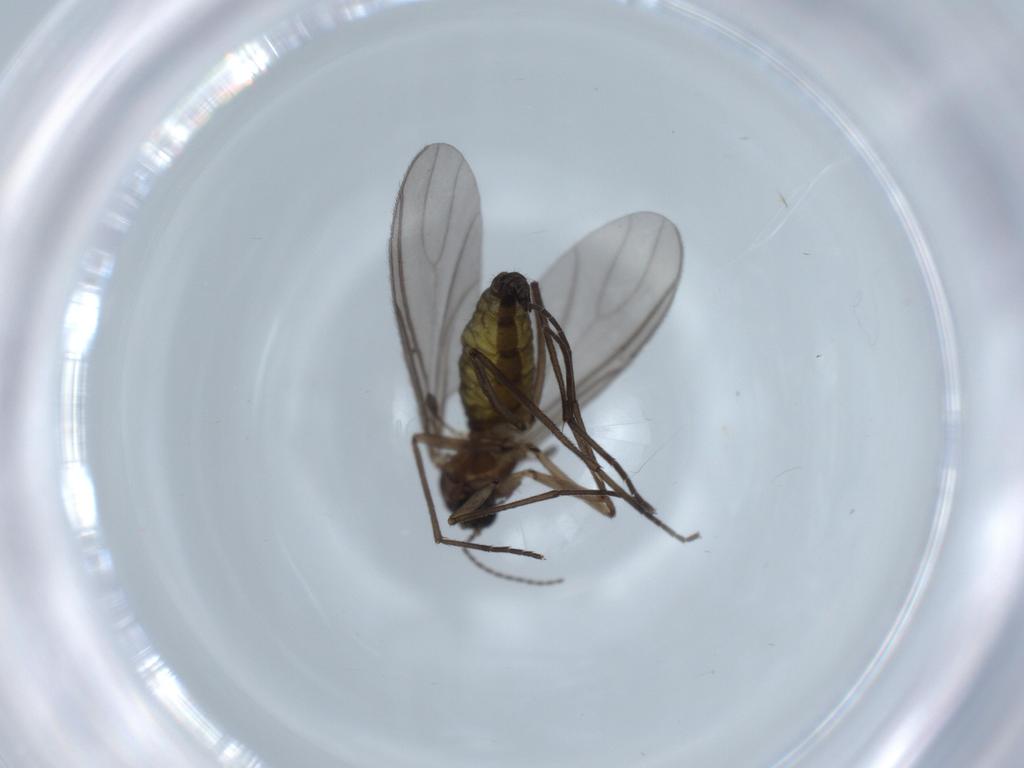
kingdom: Animalia
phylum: Arthropoda
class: Insecta
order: Diptera
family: Sciaridae
